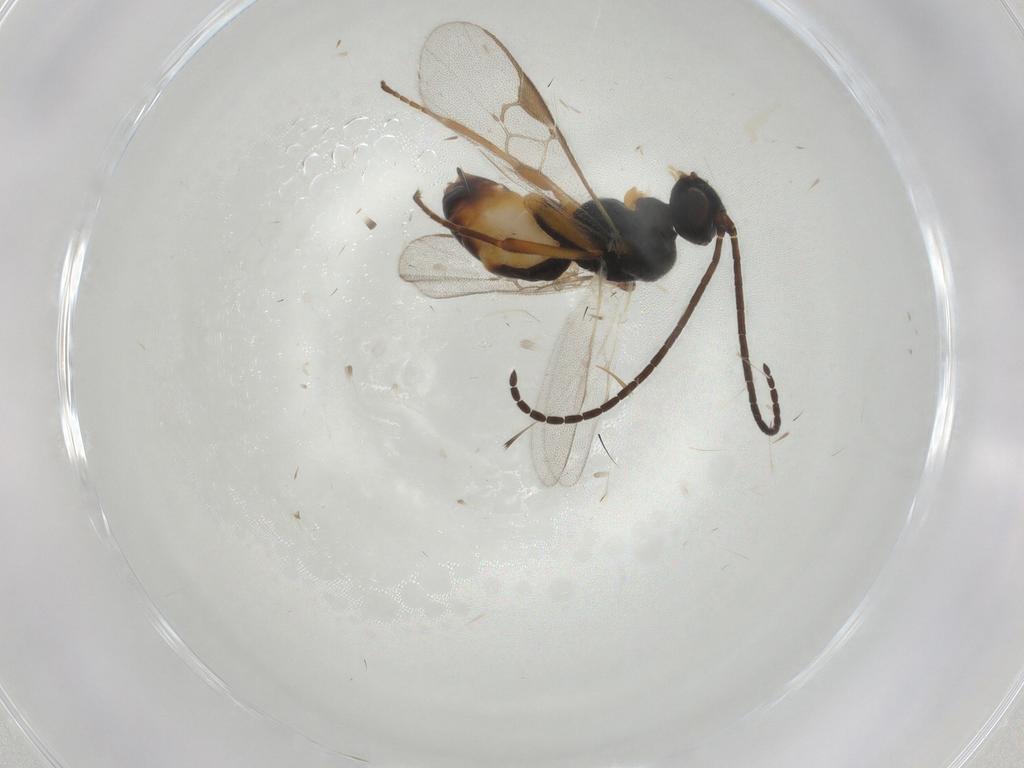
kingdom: Animalia
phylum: Arthropoda
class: Insecta
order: Hymenoptera
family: Braconidae
